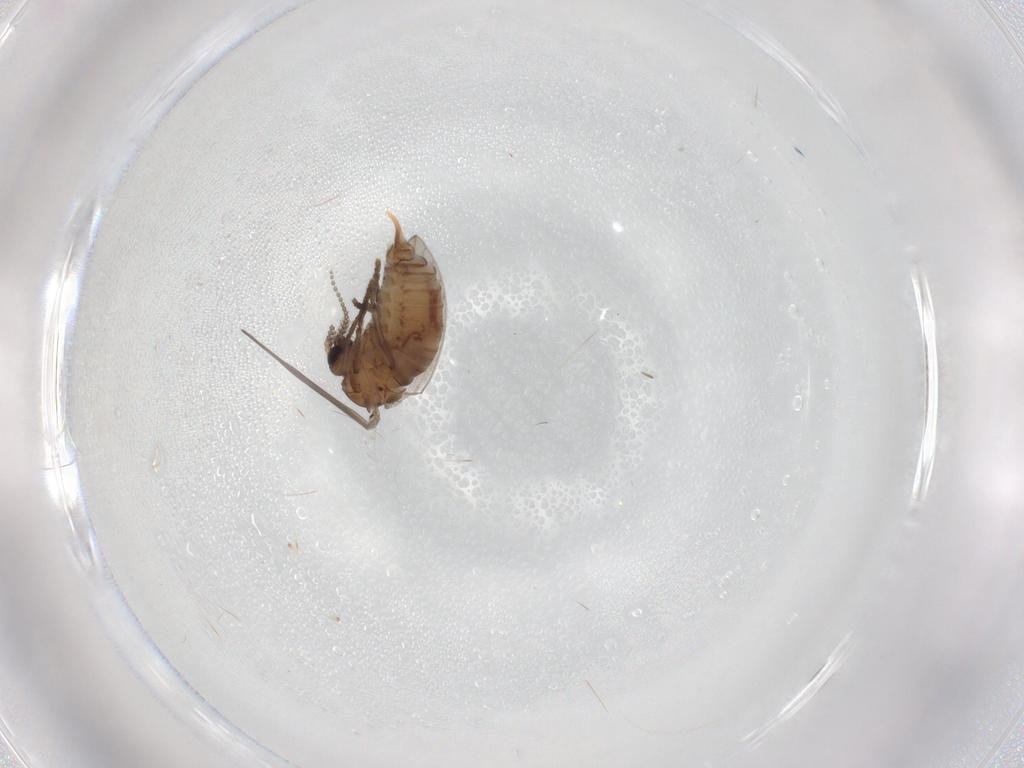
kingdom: Animalia
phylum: Arthropoda
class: Insecta
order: Diptera
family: Psychodidae
